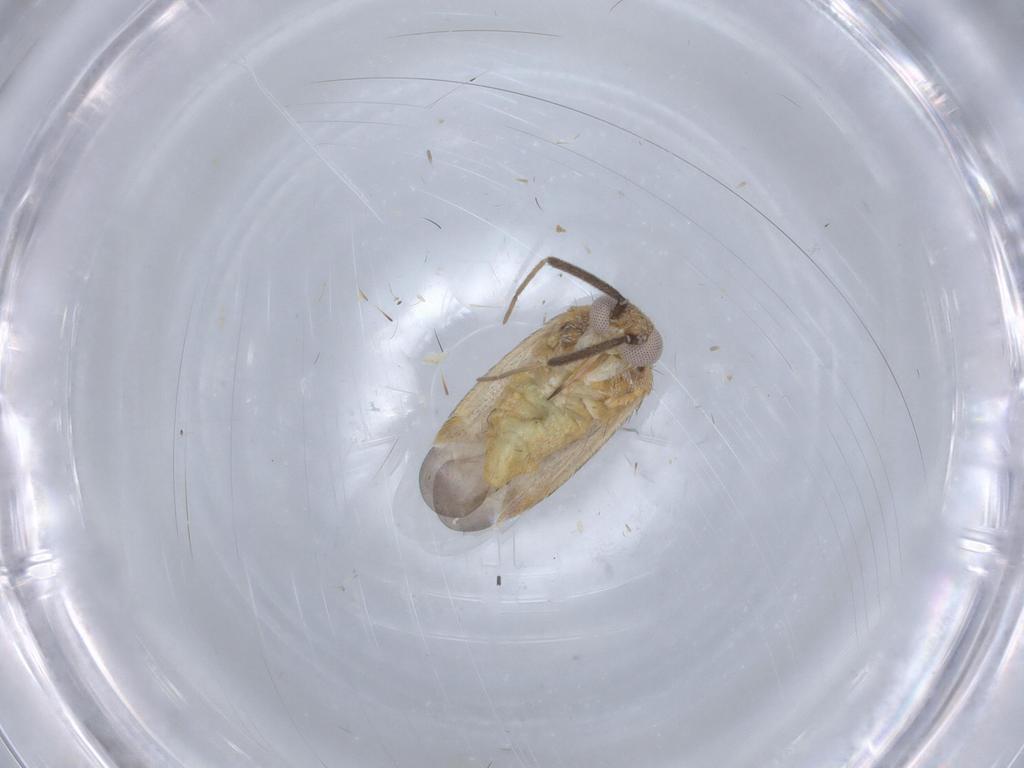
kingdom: Animalia
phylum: Arthropoda
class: Insecta
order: Hemiptera
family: Miridae
